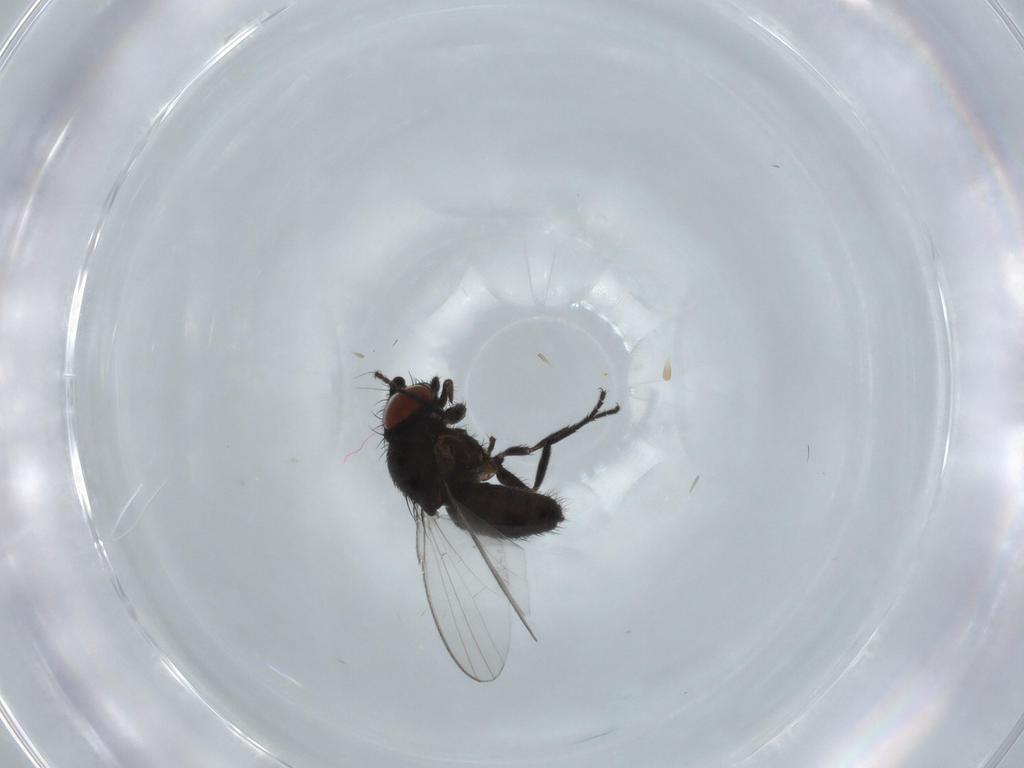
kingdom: Animalia
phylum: Arthropoda
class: Insecta
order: Diptera
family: Milichiidae
